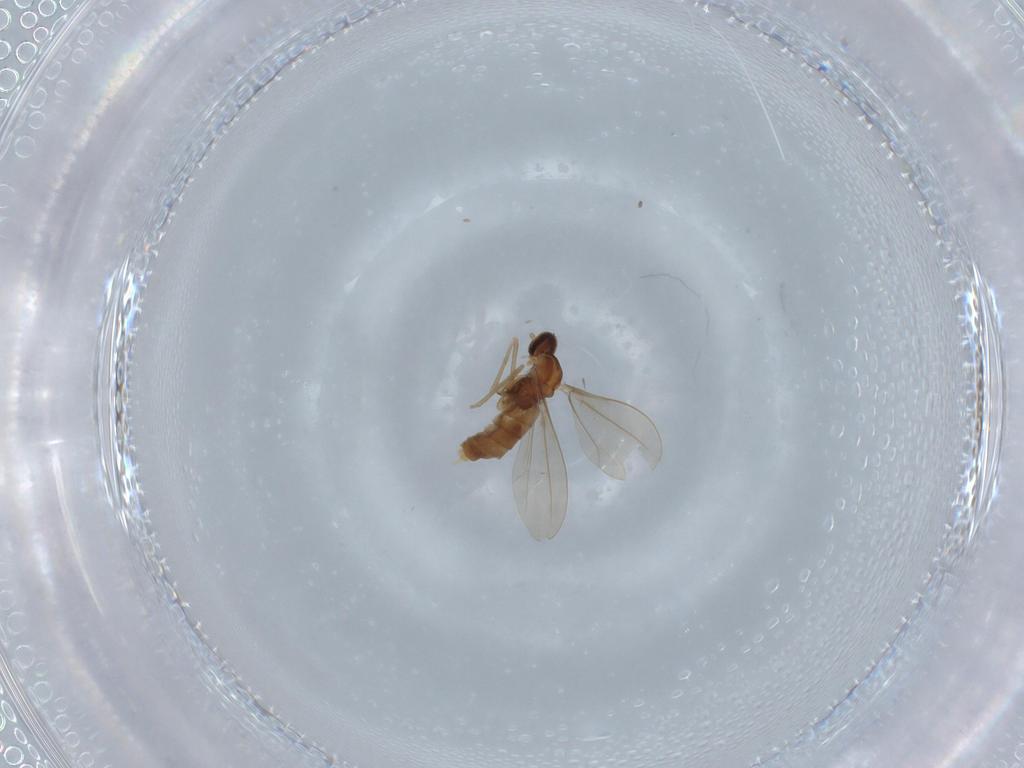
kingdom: Animalia
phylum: Arthropoda
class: Insecta
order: Diptera
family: Cecidomyiidae
